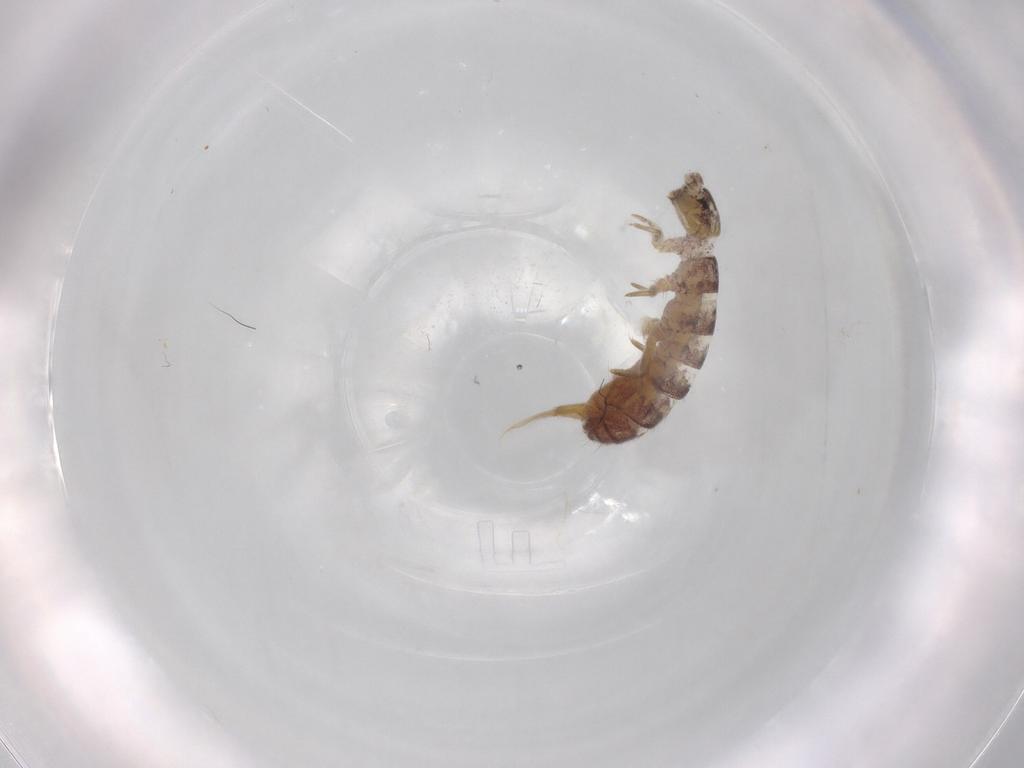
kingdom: Animalia
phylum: Arthropoda
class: Collembola
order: Entomobryomorpha
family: Isotomidae
